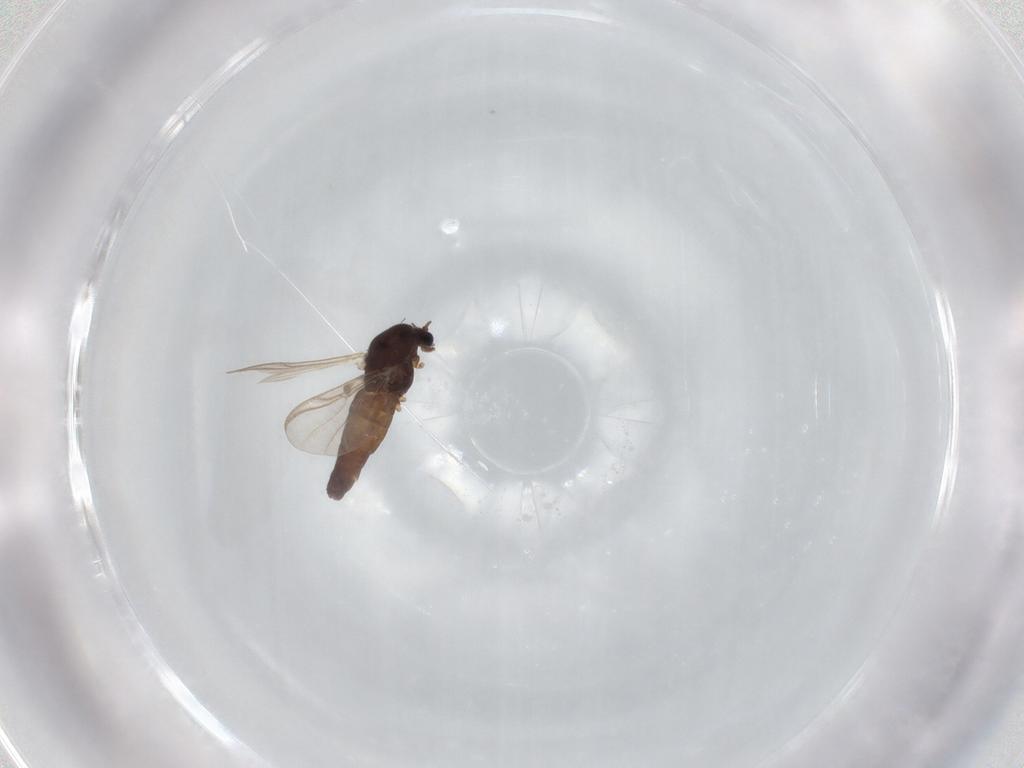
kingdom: Animalia
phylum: Arthropoda
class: Insecta
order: Diptera
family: Chironomidae
